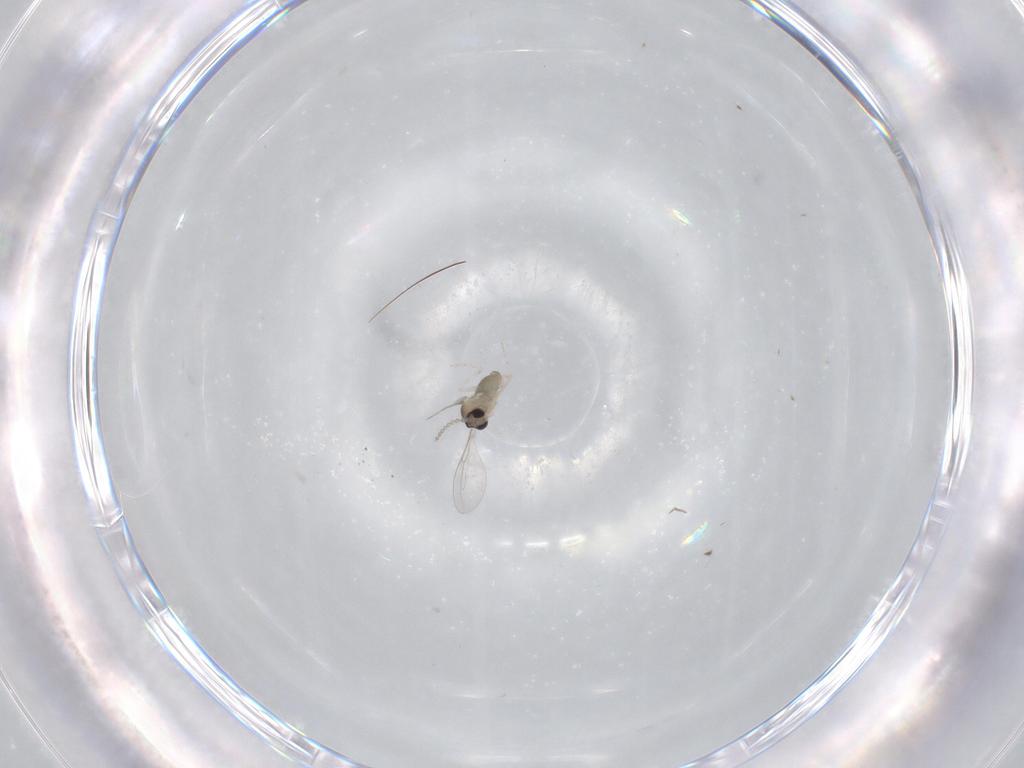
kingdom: Animalia
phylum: Arthropoda
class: Insecta
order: Diptera
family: Cecidomyiidae
